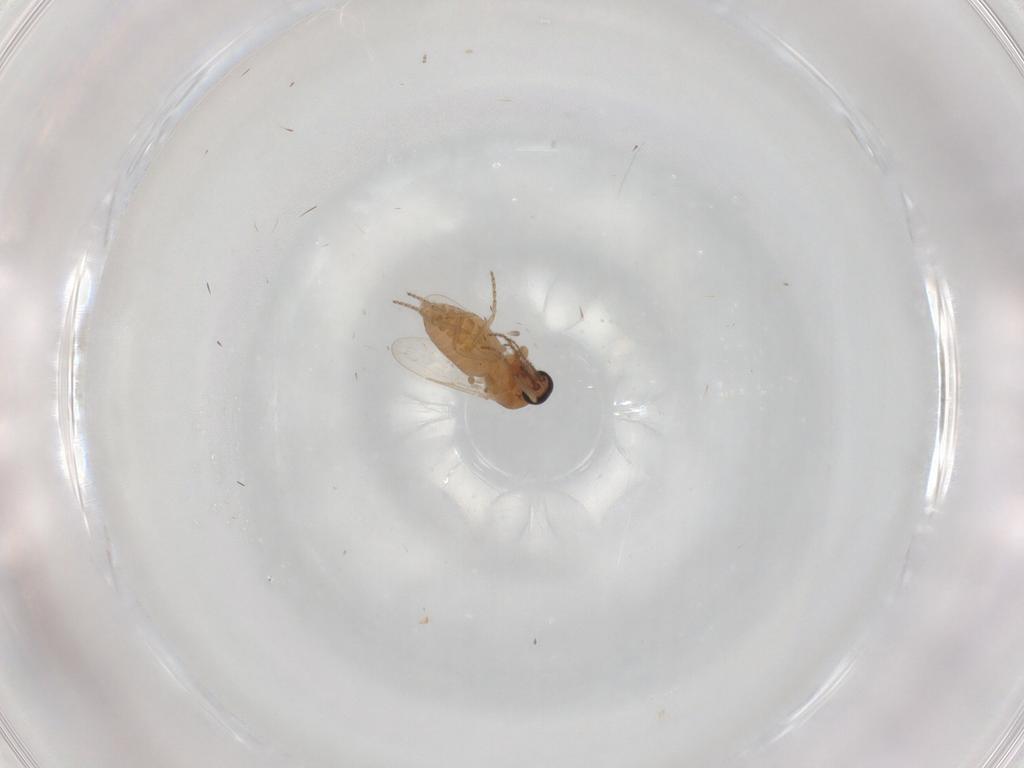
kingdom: Animalia
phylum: Arthropoda
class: Insecta
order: Diptera
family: Ceratopogonidae
